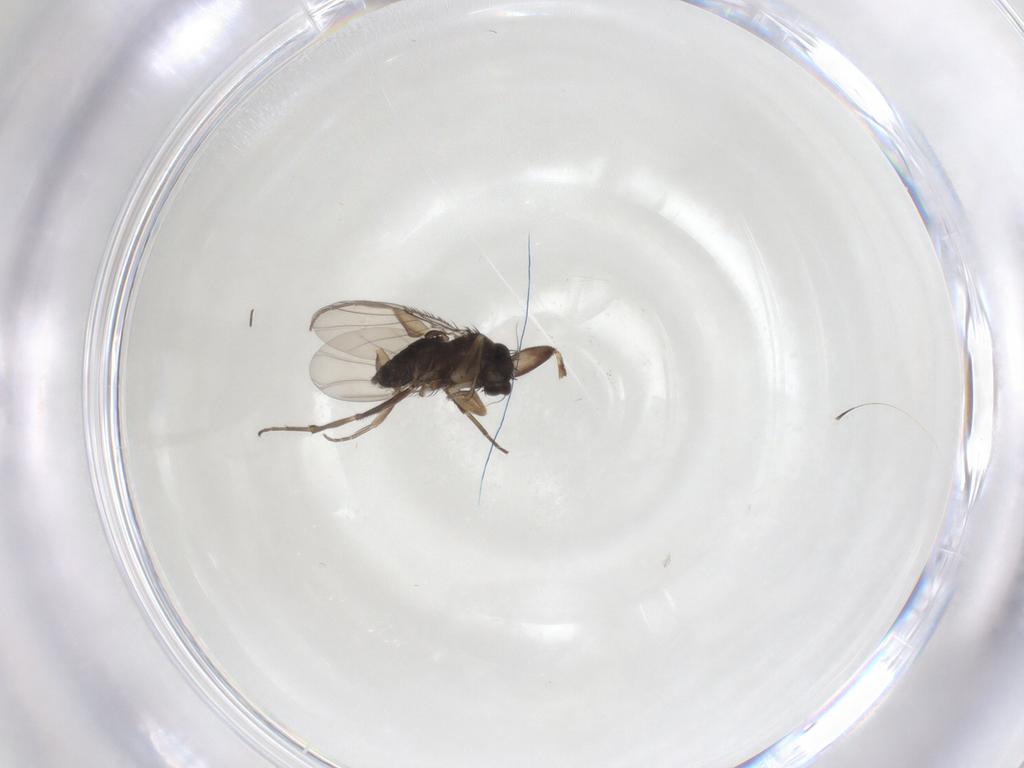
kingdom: Animalia
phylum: Arthropoda
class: Insecta
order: Diptera
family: Phoridae
